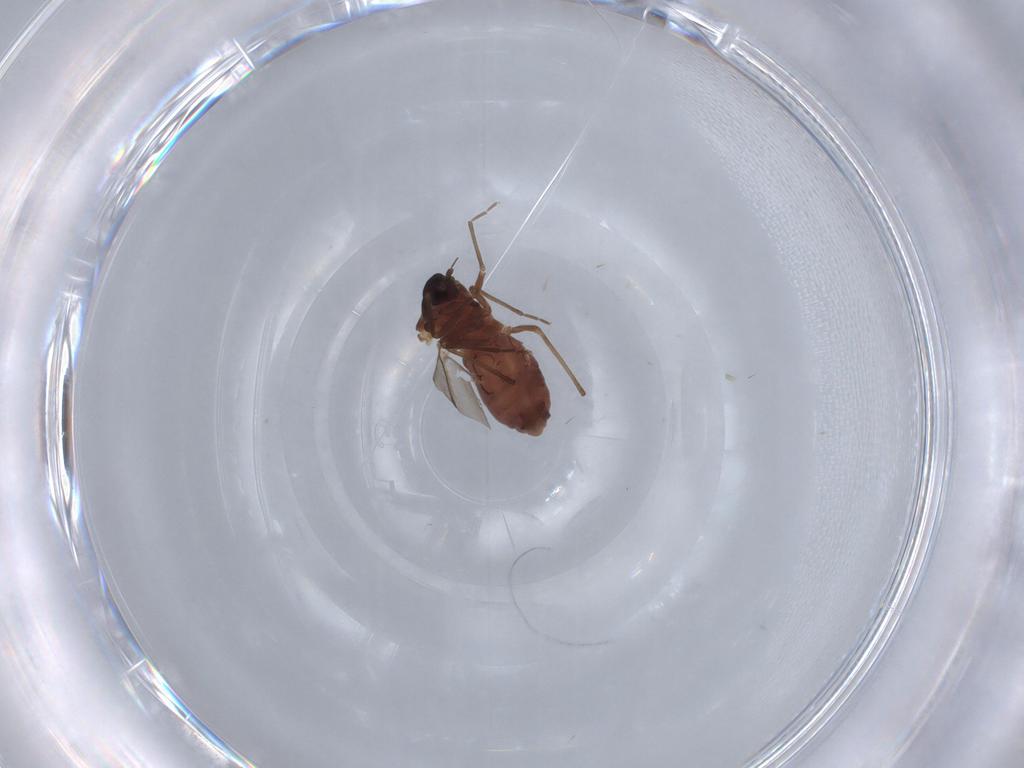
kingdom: Animalia
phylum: Arthropoda
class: Insecta
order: Hemiptera
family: Aleyrodidae
